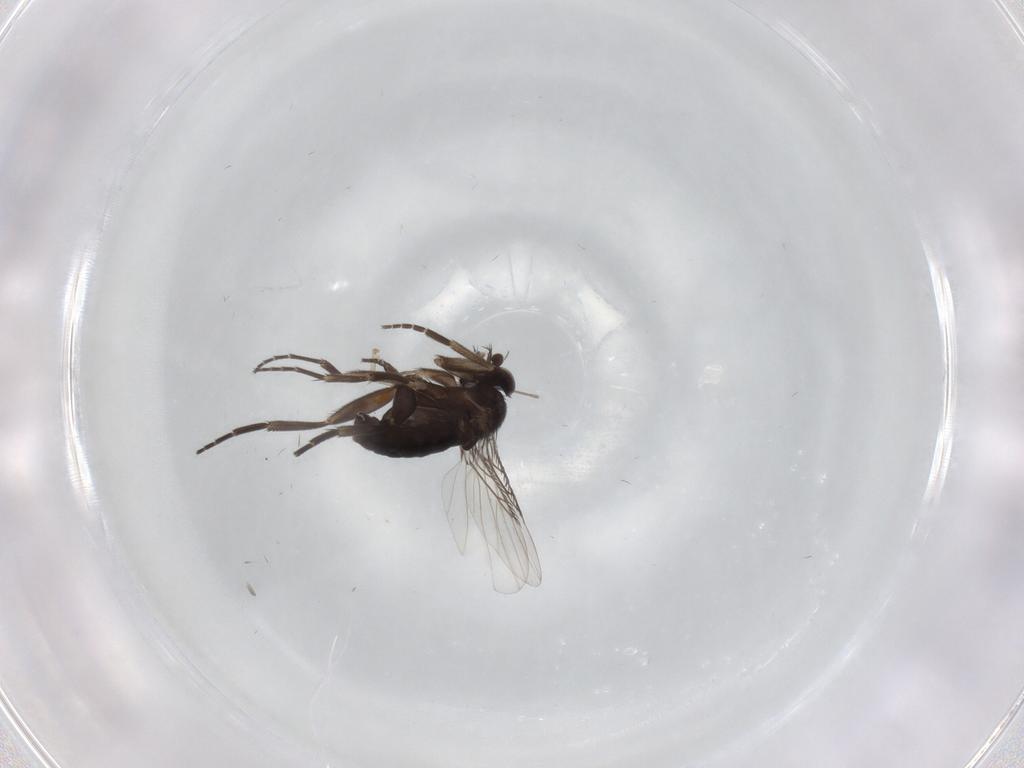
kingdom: Animalia
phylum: Arthropoda
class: Insecta
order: Diptera
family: Phoridae
